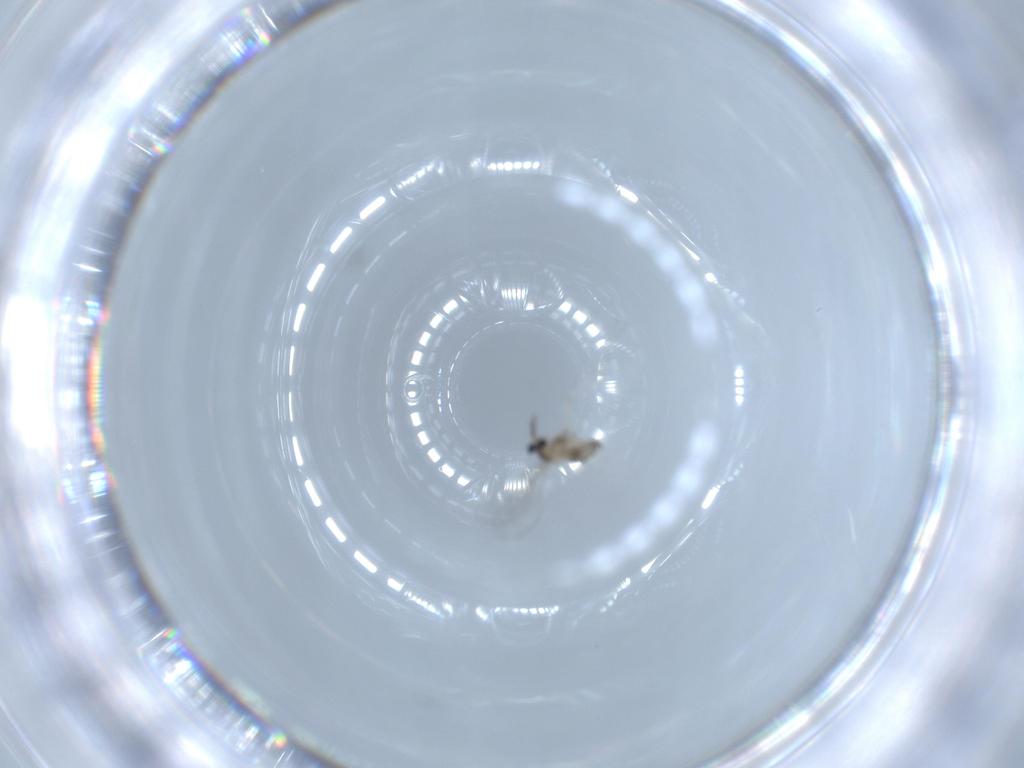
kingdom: Animalia
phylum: Arthropoda
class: Insecta
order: Diptera
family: Cecidomyiidae
